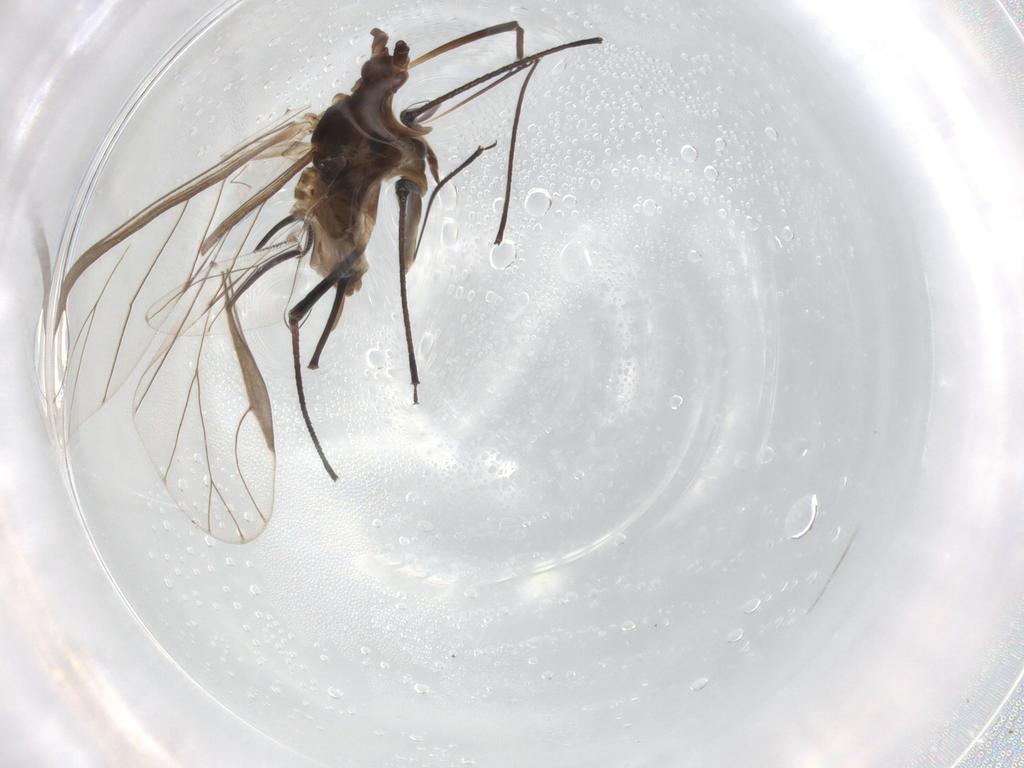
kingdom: Animalia
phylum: Arthropoda
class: Insecta
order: Hemiptera
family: Aphididae
